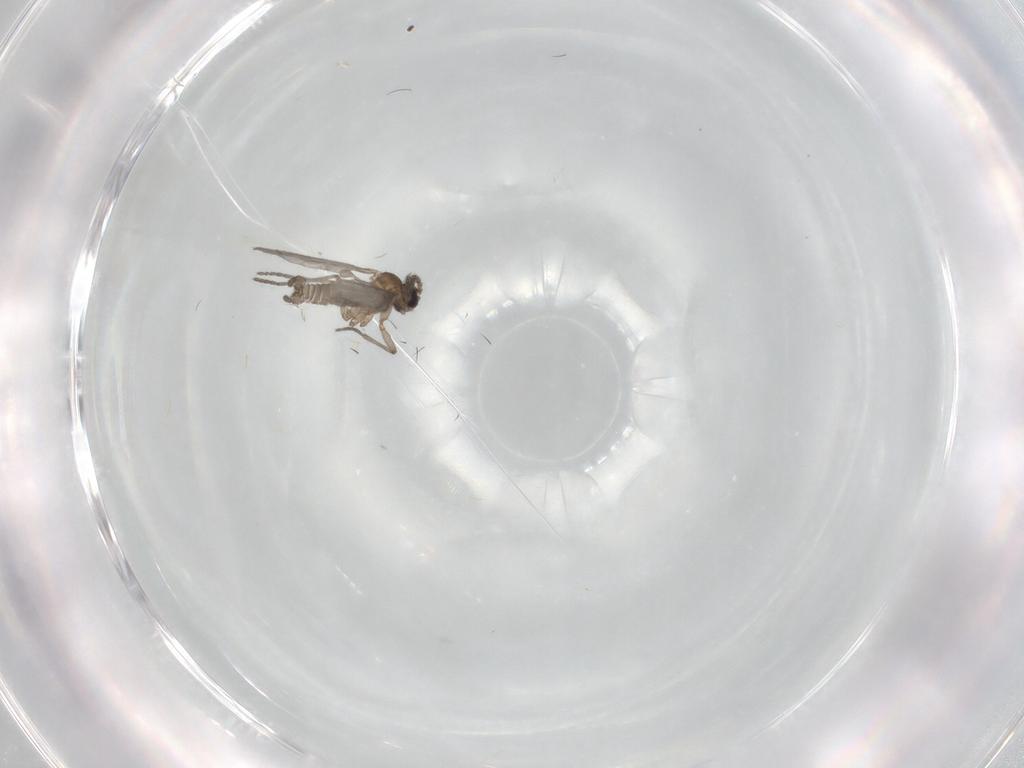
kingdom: Animalia
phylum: Arthropoda
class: Insecta
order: Diptera
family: Sciaridae
